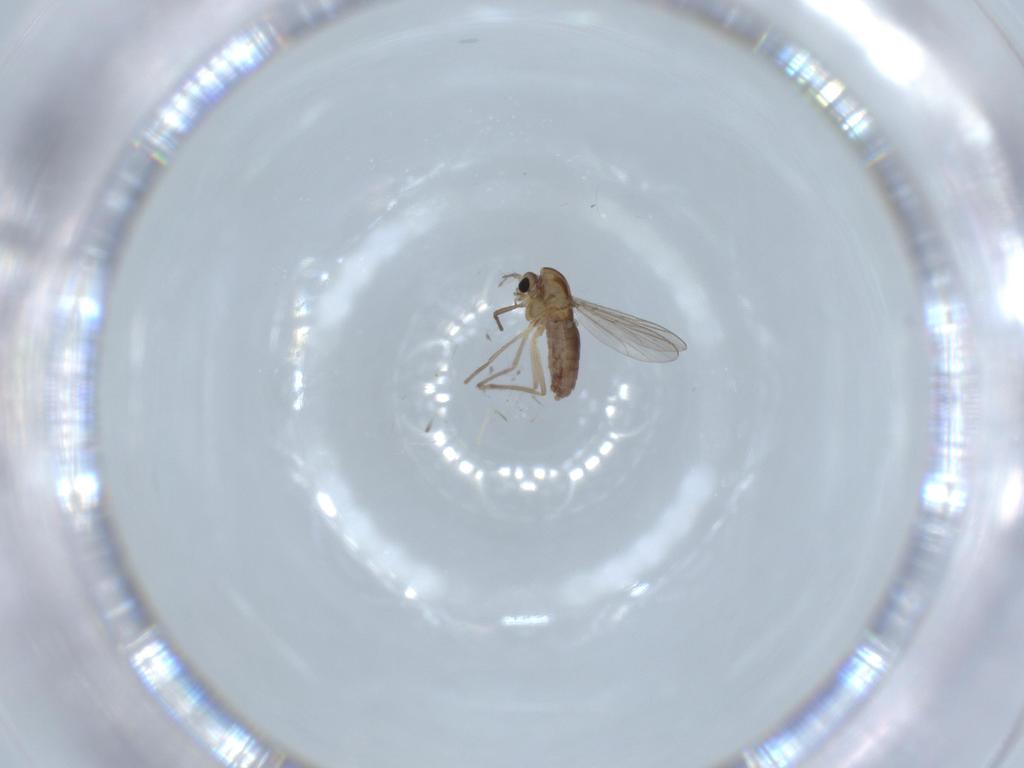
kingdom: Animalia
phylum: Arthropoda
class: Insecta
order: Diptera
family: Chironomidae
